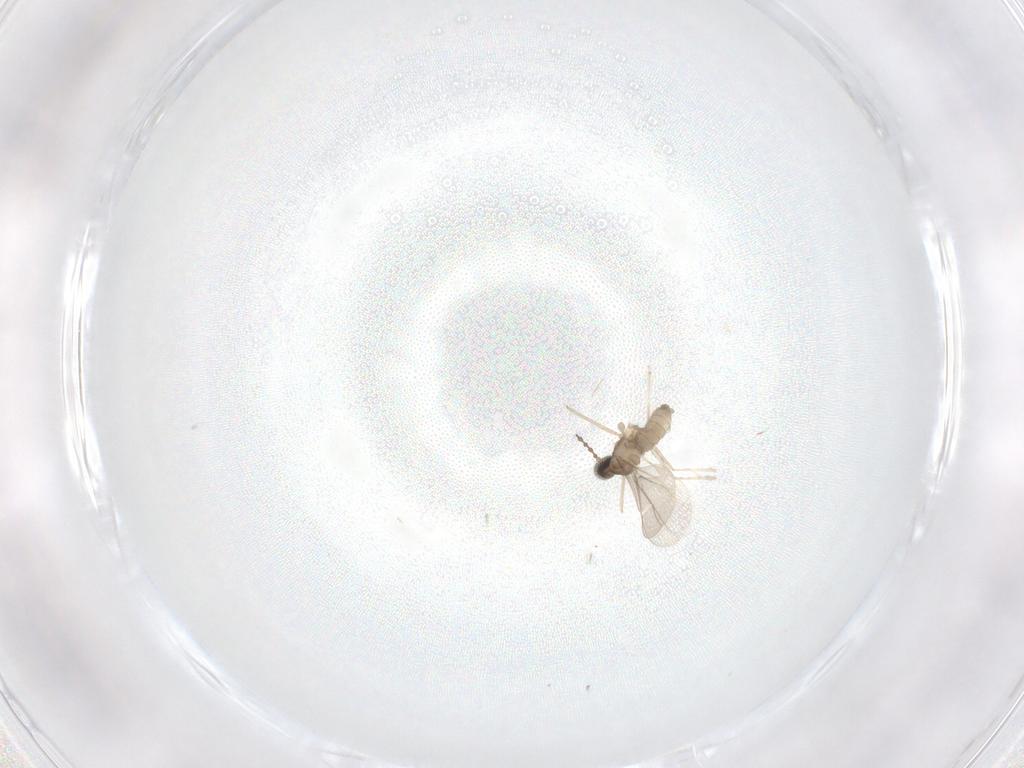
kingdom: Animalia
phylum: Arthropoda
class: Insecta
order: Diptera
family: Psychodidae
